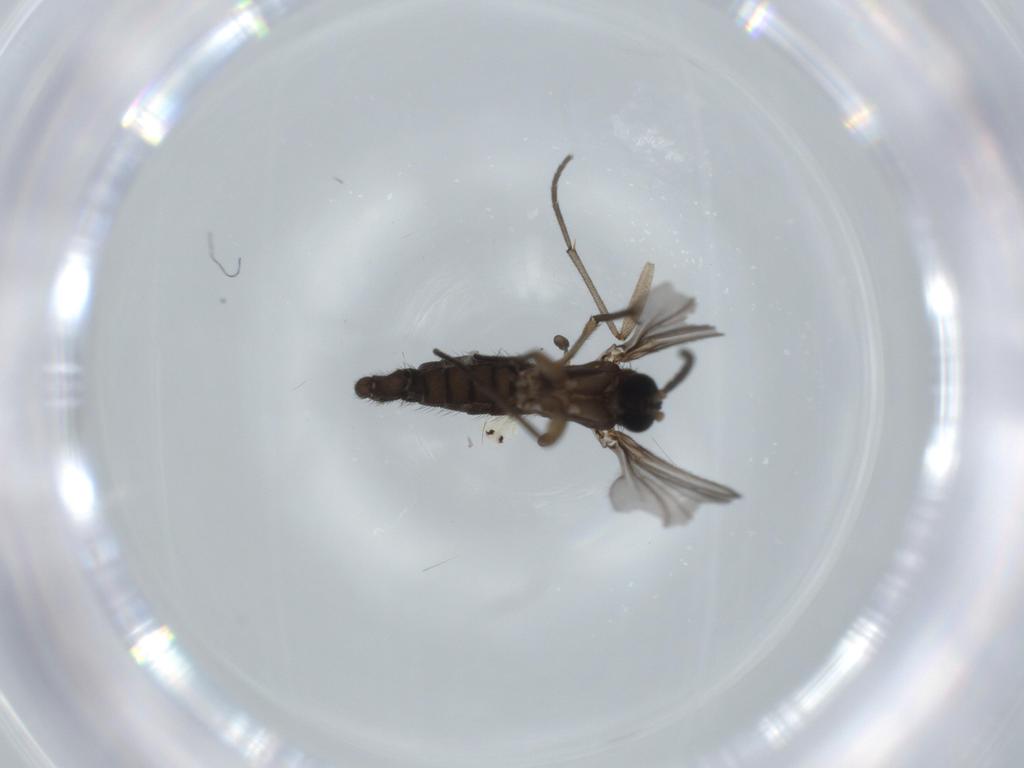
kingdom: Animalia
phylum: Arthropoda
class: Insecta
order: Diptera
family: Sciaridae
